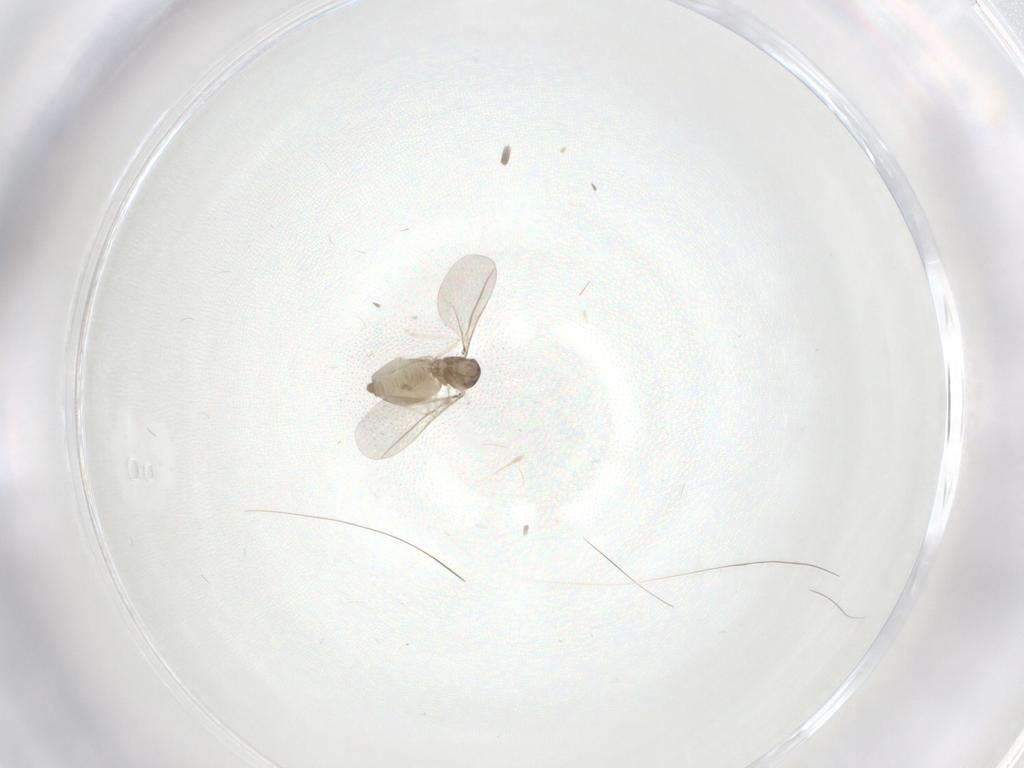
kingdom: Animalia
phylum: Arthropoda
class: Insecta
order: Diptera
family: Cecidomyiidae
